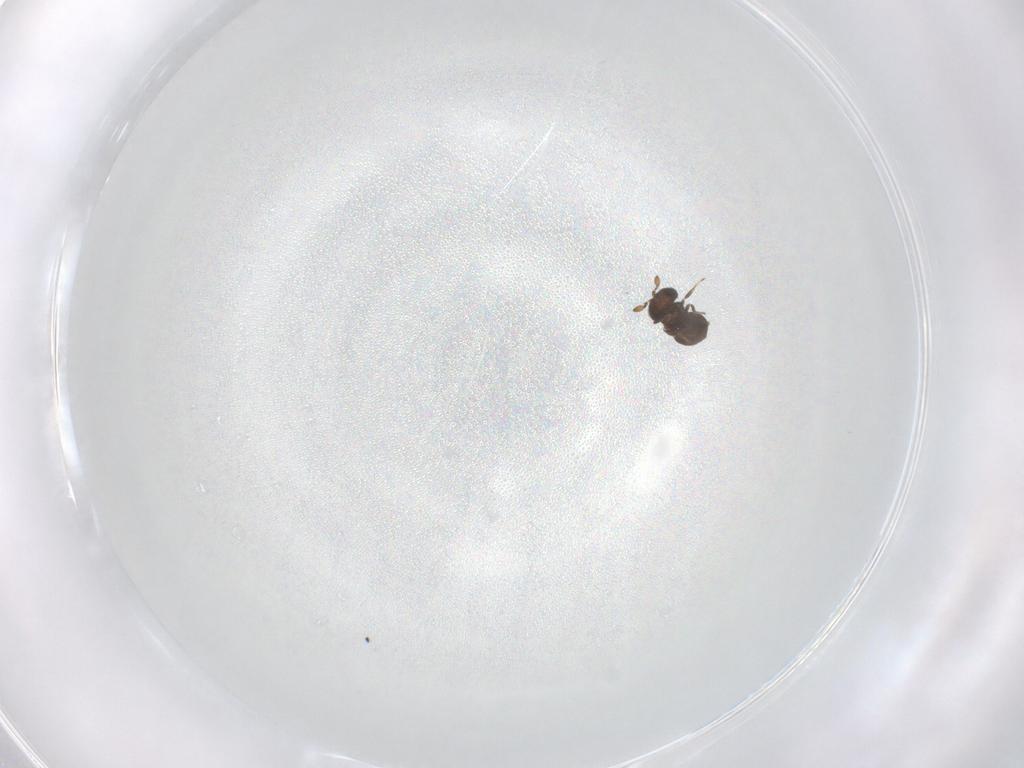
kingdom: Animalia
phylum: Arthropoda
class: Insecta
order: Hymenoptera
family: Scelionidae
